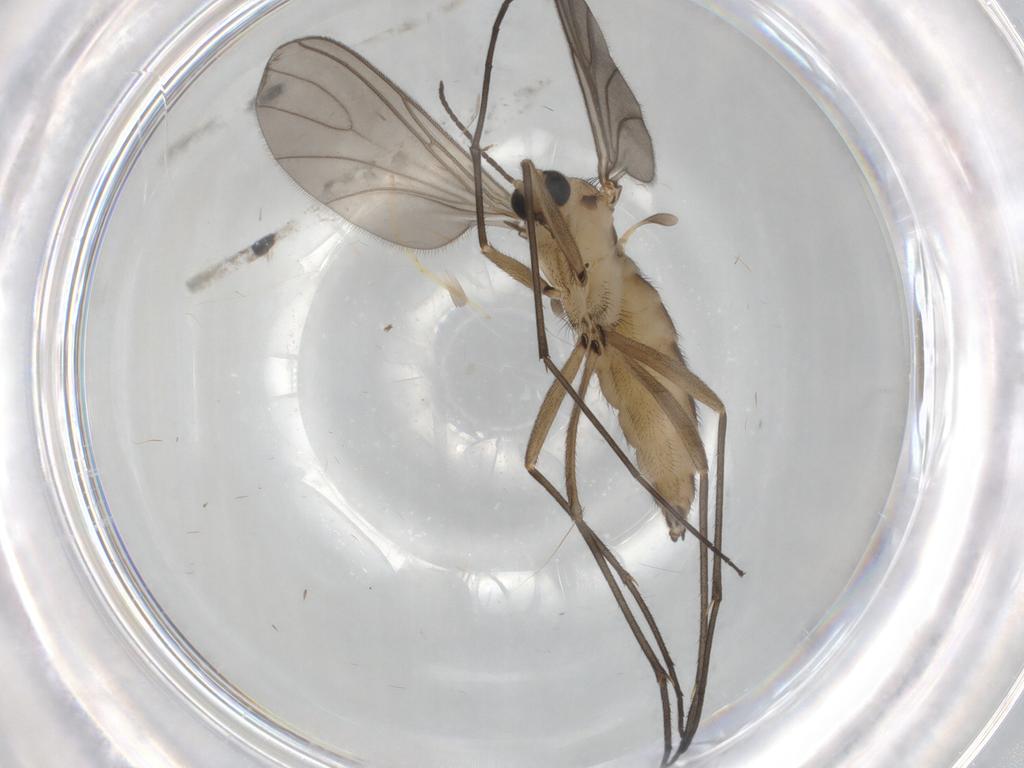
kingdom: Animalia
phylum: Arthropoda
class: Insecta
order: Diptera
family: Sciaridae
